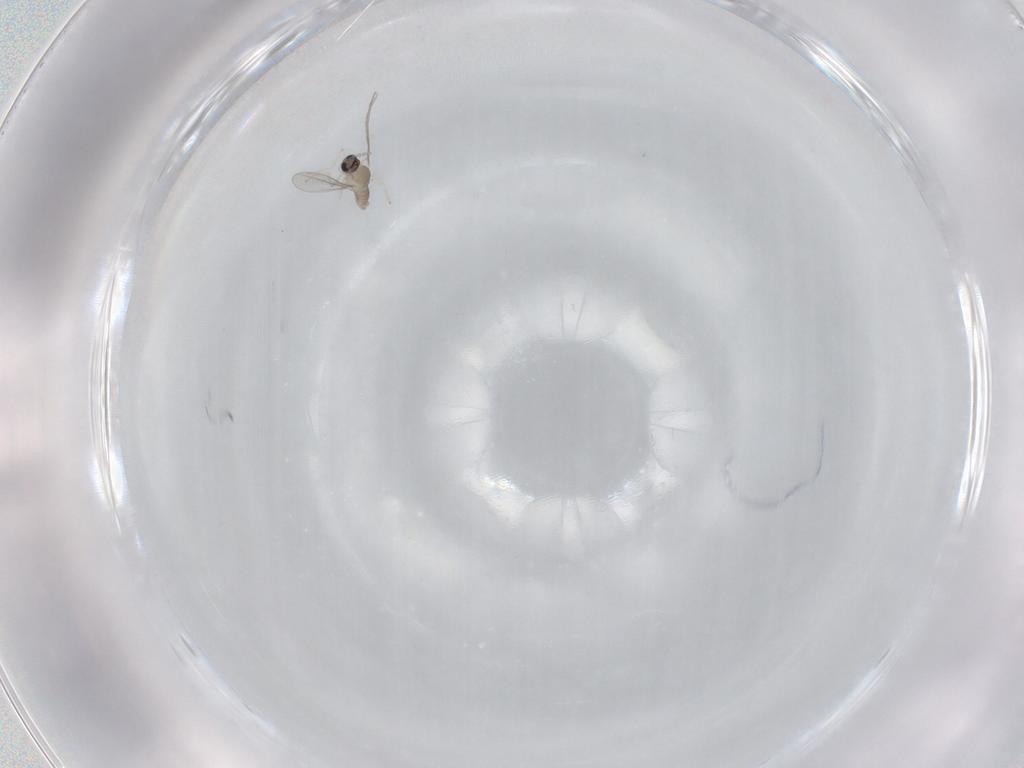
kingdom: Animalia
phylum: Arthropoda
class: Insecta
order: Diptera
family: Cecidomyiidae
